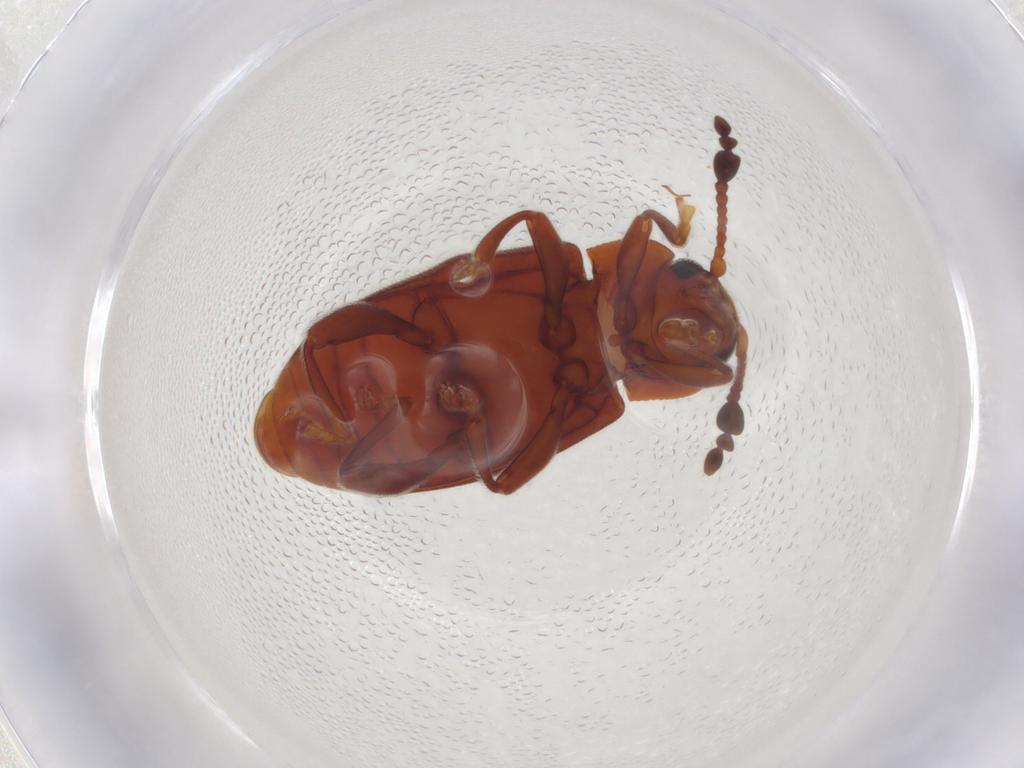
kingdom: Animalia
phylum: Arthropoda
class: Insecta
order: Coleoptera
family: Endomychidae
